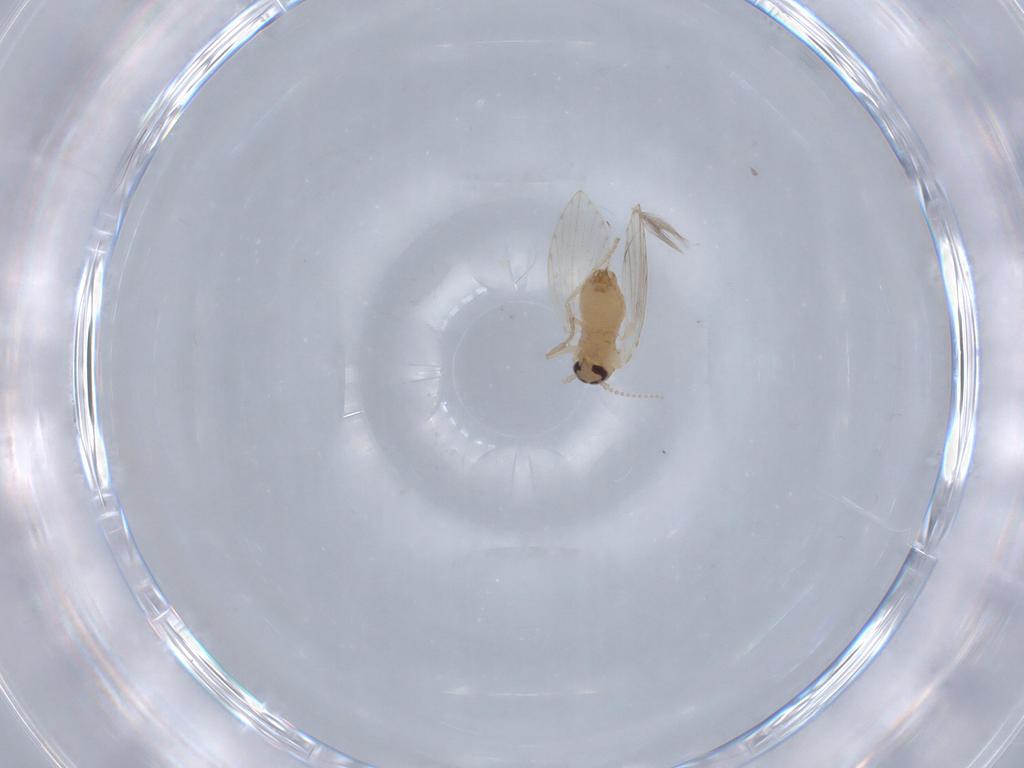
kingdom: Animalia
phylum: Arthropoda
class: Insecta
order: Diptera
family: Psychodidae
